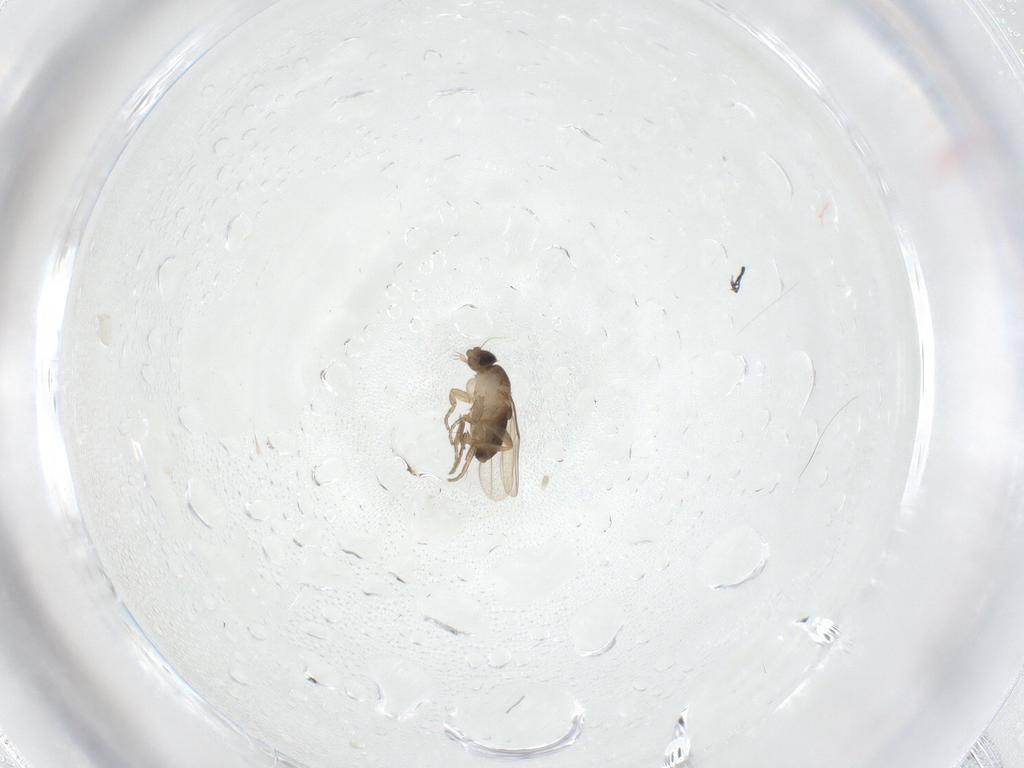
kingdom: Animalia
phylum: Arthropoda
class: Insecta
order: Diptera
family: Phoridae
